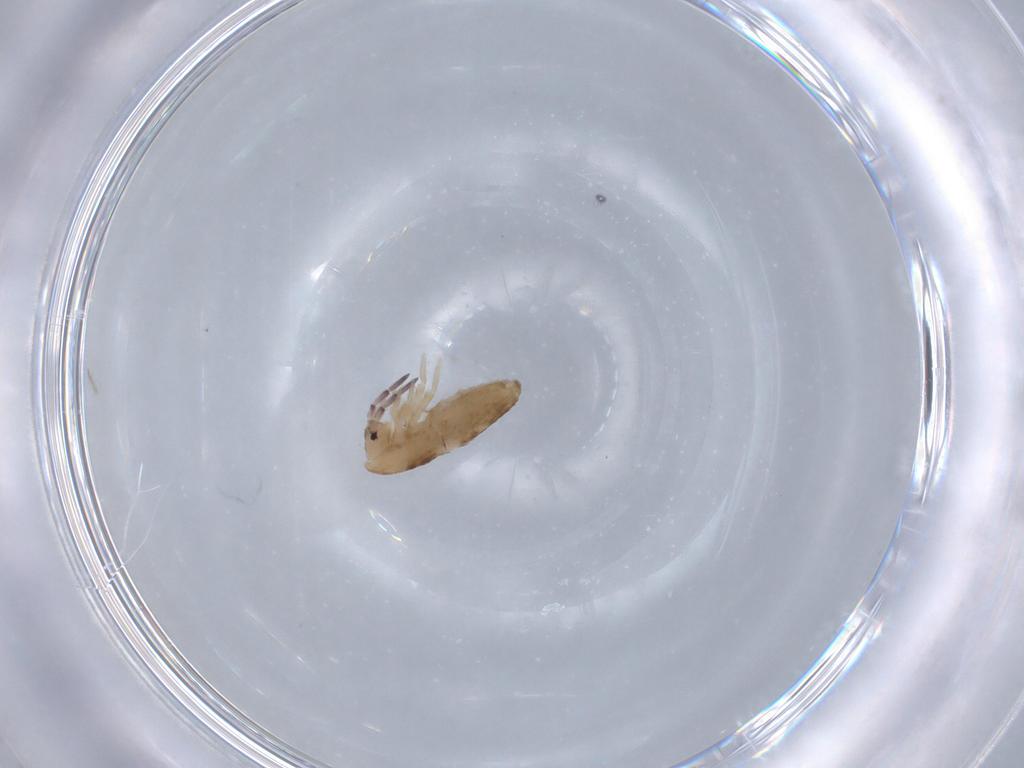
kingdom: Animalia
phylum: Arthropoda
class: Collembola
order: Entomobryomorpha
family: Entomobryidae
